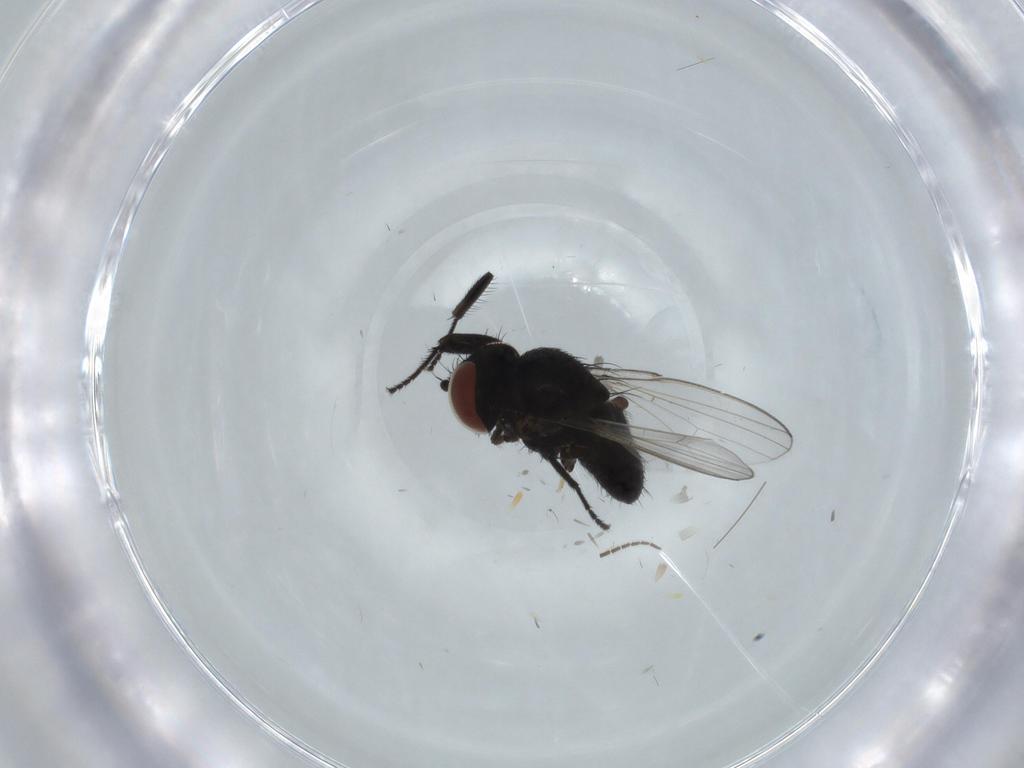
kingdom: Animalia
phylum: Arthropoda
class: Insecta
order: Diptera
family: Milichiidae
